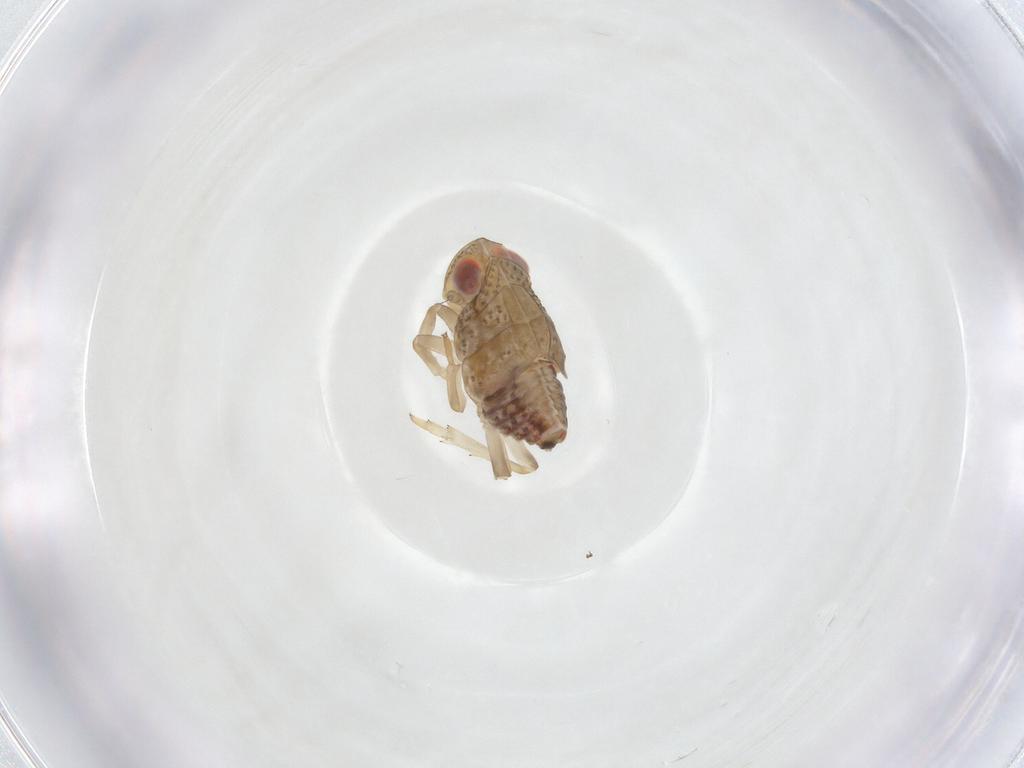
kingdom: Animalia
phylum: Arthropoda
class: Insecta
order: Hemiptera
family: Issidae
